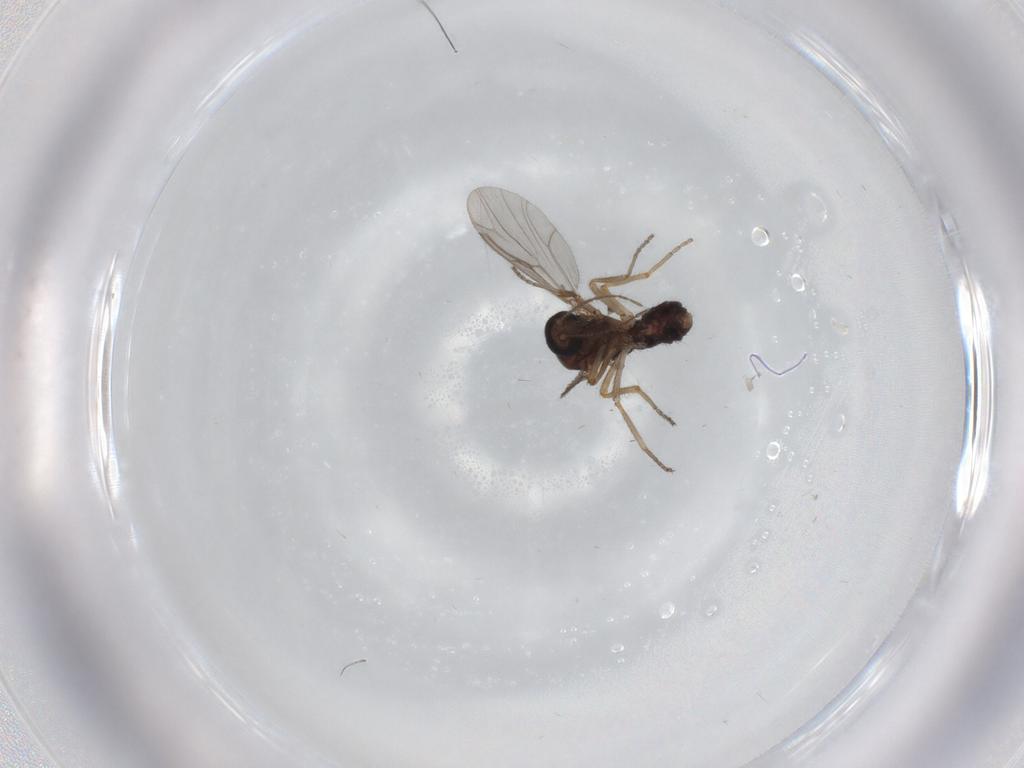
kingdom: Animalia
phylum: Arthropoda
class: Insecta
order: Diptera
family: Ceratopogonidae
